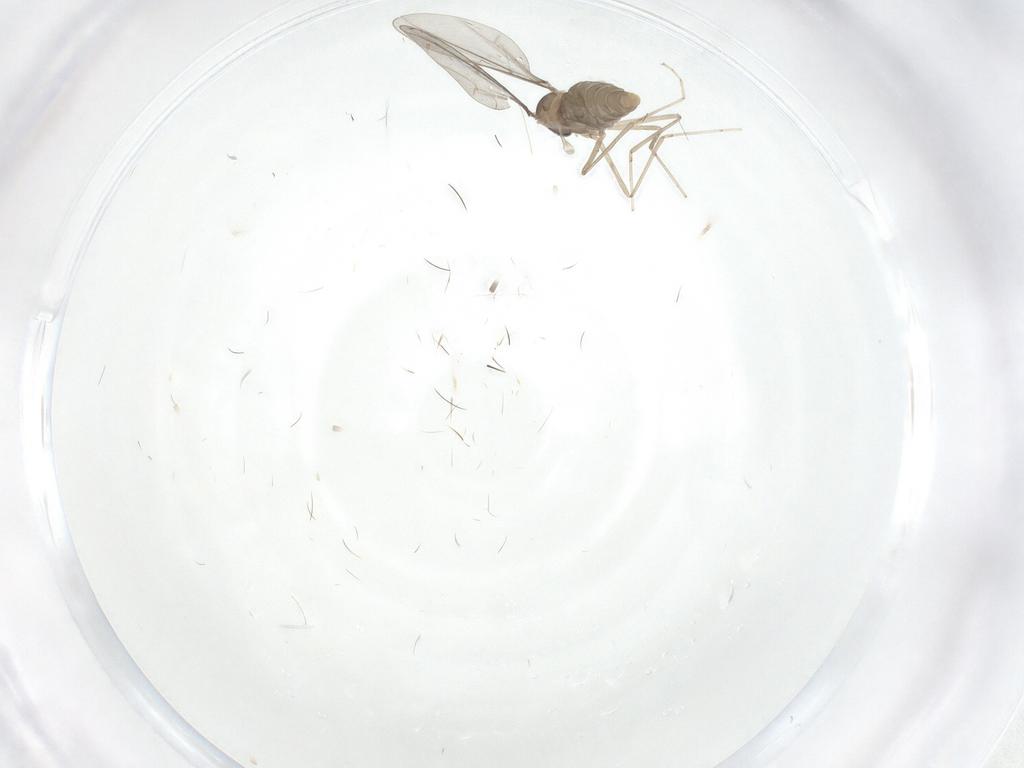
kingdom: Animalia
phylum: Arthropoda
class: Insecta
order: Diptera
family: Cecidomyiidae
